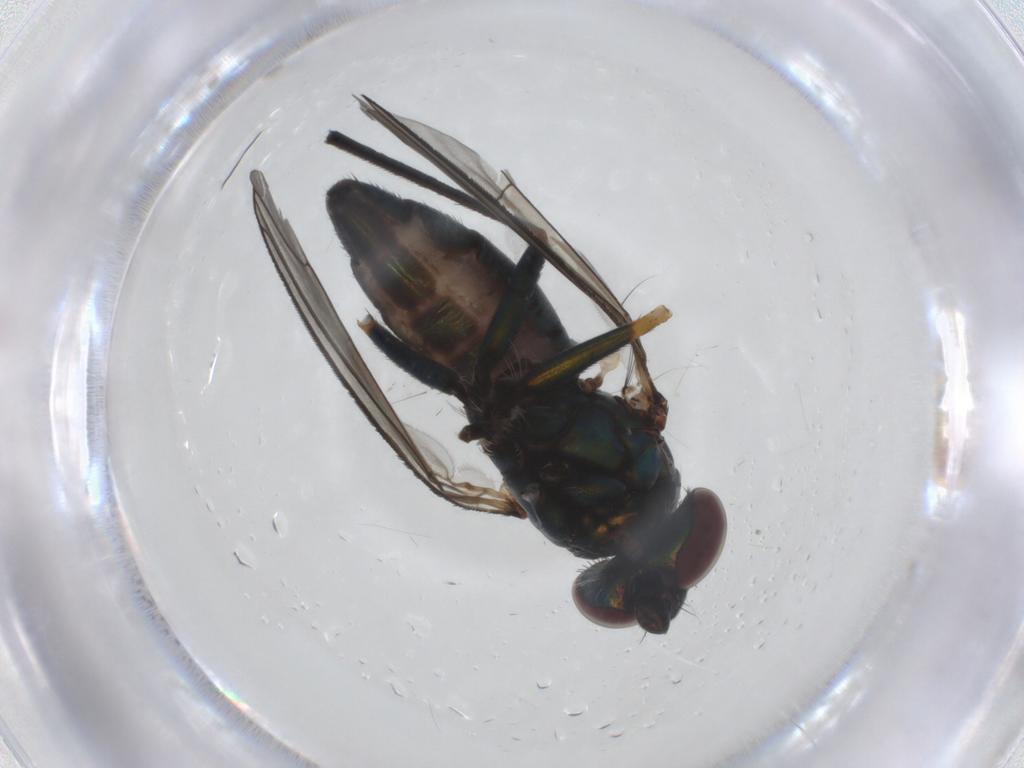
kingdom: Animalia
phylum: Arthropoda
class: Insecta
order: Diptera
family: Dolichopodidae
